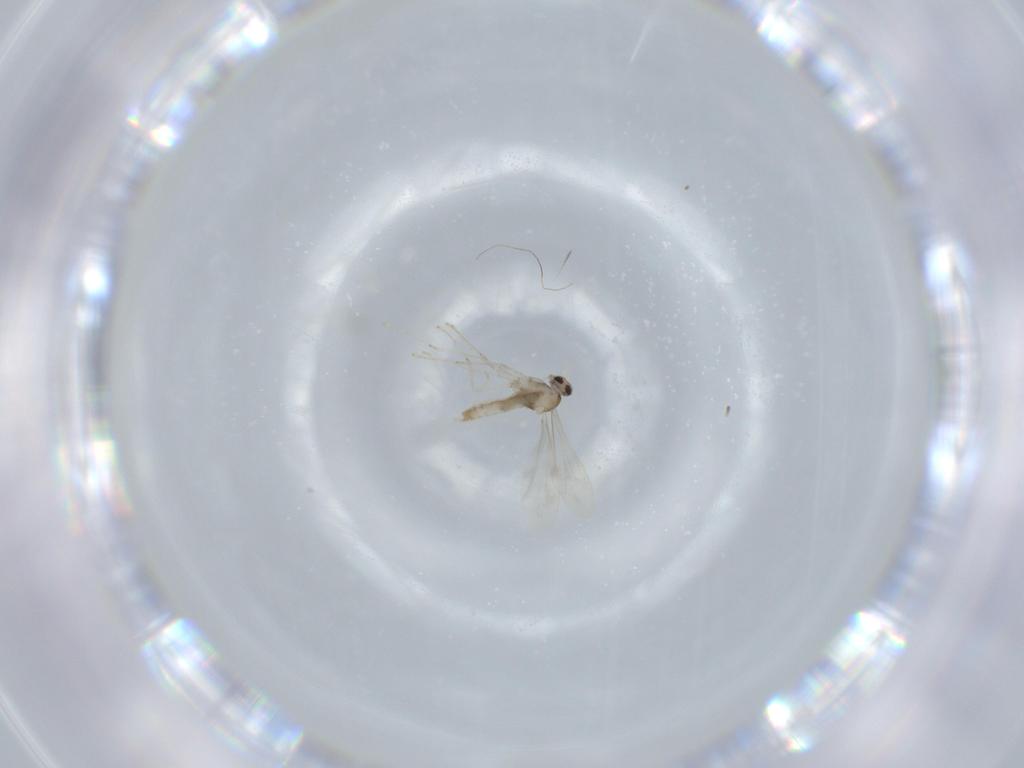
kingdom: Animalia
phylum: Arthropoda
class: Insecta
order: Diptera
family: Cecidomyiidae
